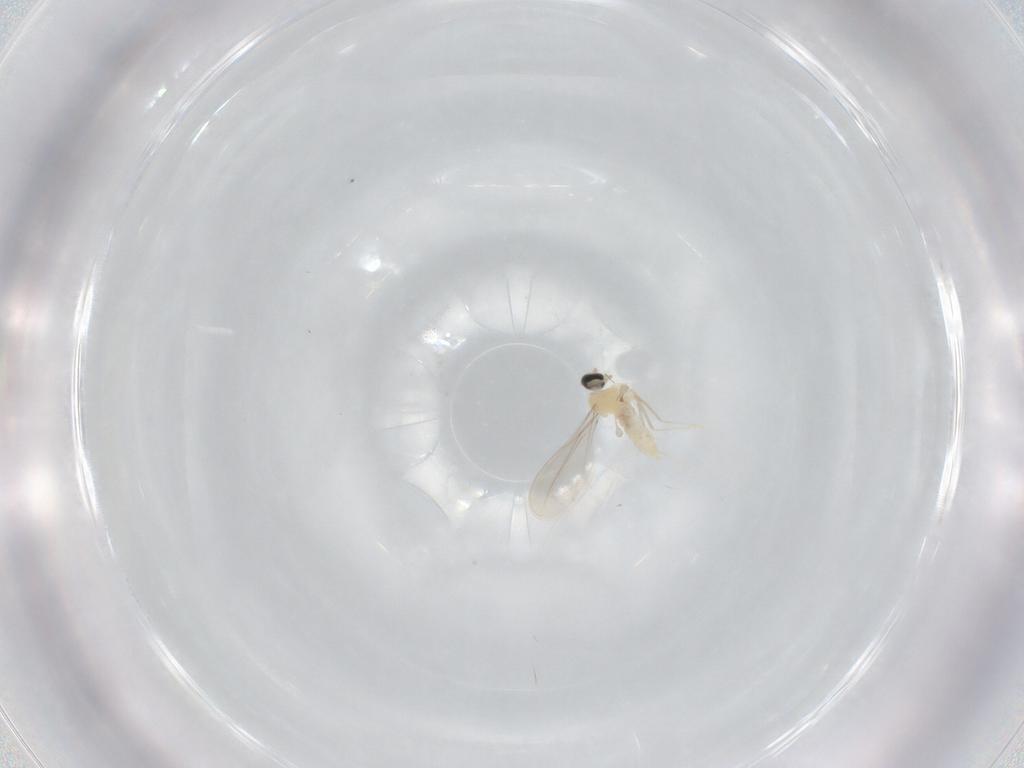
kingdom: Animalia
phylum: Arthropoda
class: Insecta
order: Diptera
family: Cecidomyiidae
